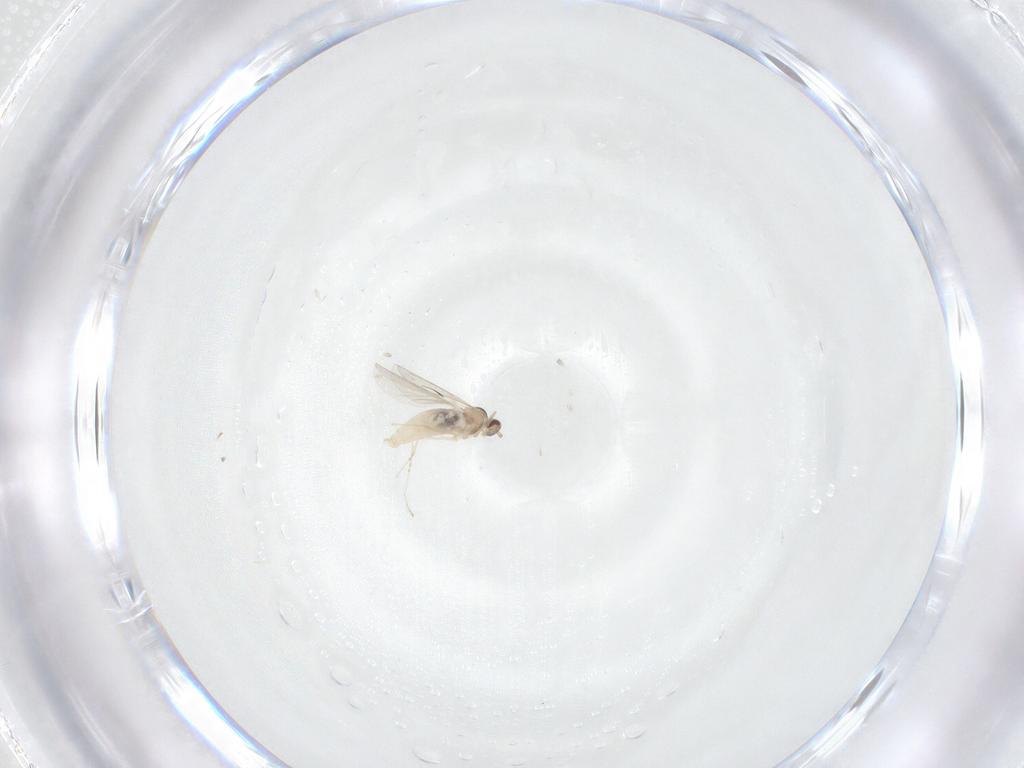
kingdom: Animalia
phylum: Arthropoda
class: Insecta
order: Diptera
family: Cecidomyiidae
